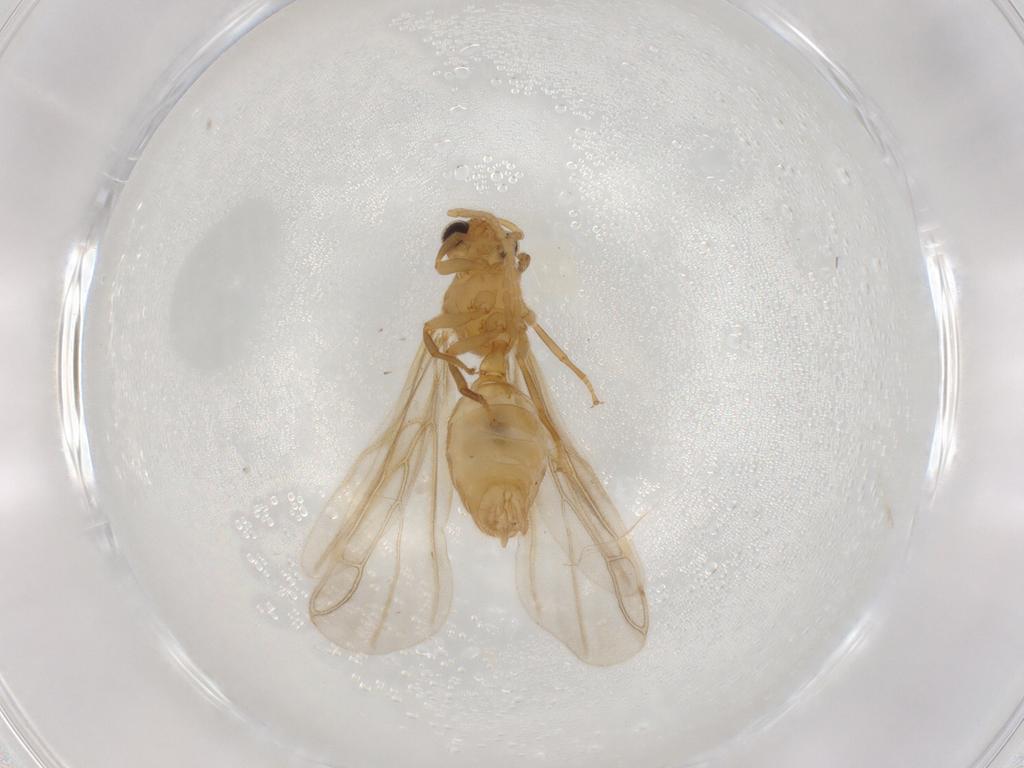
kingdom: Animalia
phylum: Arthropoda
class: Insecta
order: Hymenoptera
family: Formicidae
